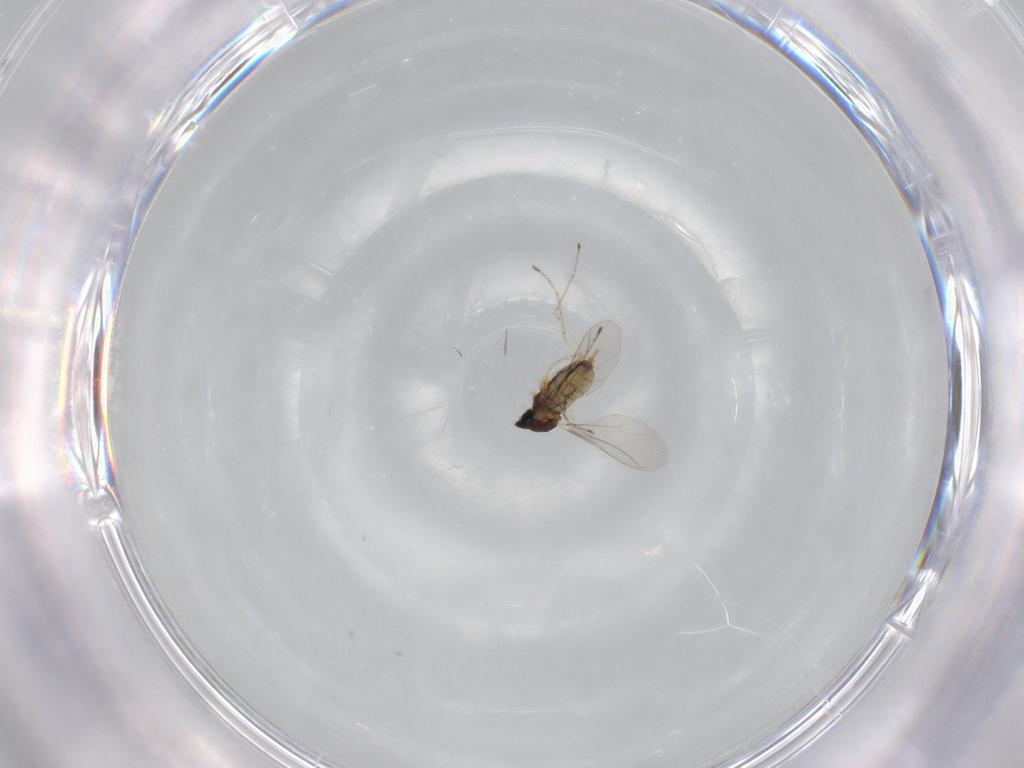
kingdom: Animalia
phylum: Arthropoda
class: Insecta
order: Diptera
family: Cecidomyiidae
